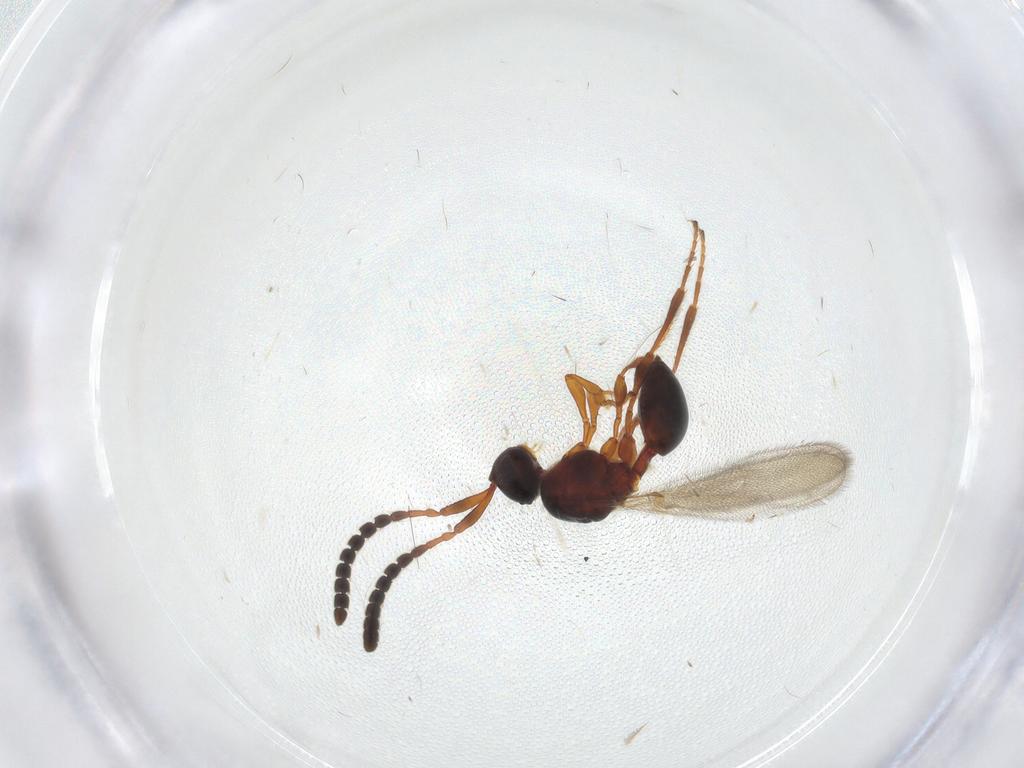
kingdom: Animalia
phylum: Arthropoda
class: Insecta
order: Hymenoptera
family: Diapriidae
